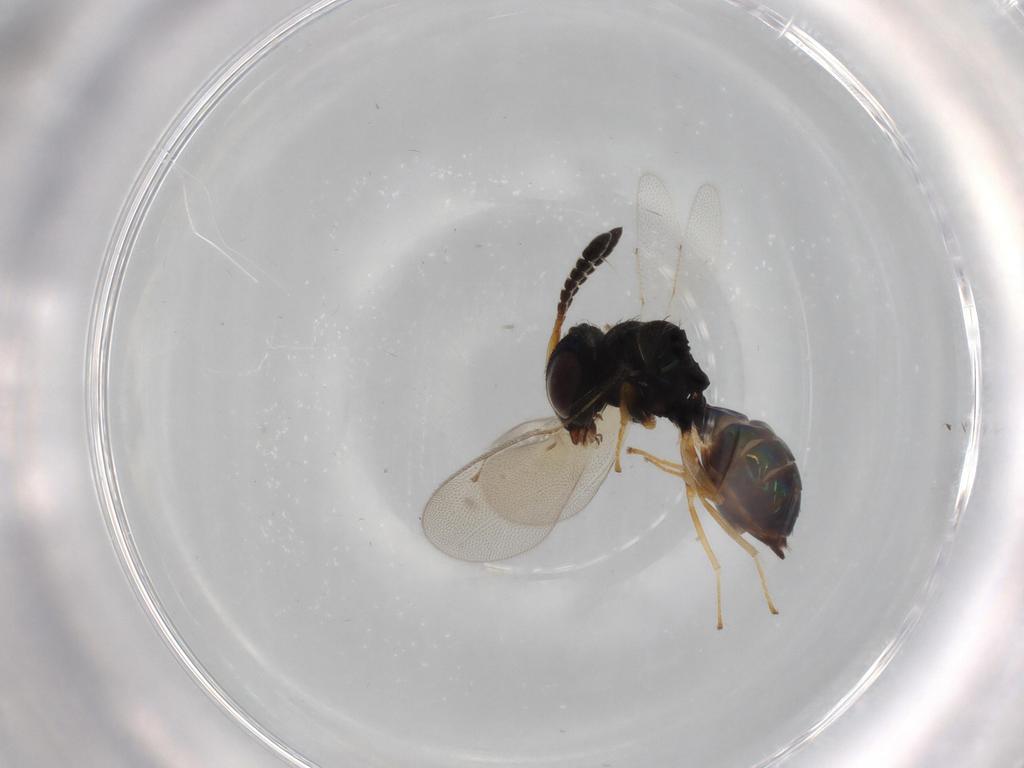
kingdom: Animalia
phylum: Arthropoda
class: Insecta
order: Hymenoptera
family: Pteromalidae
